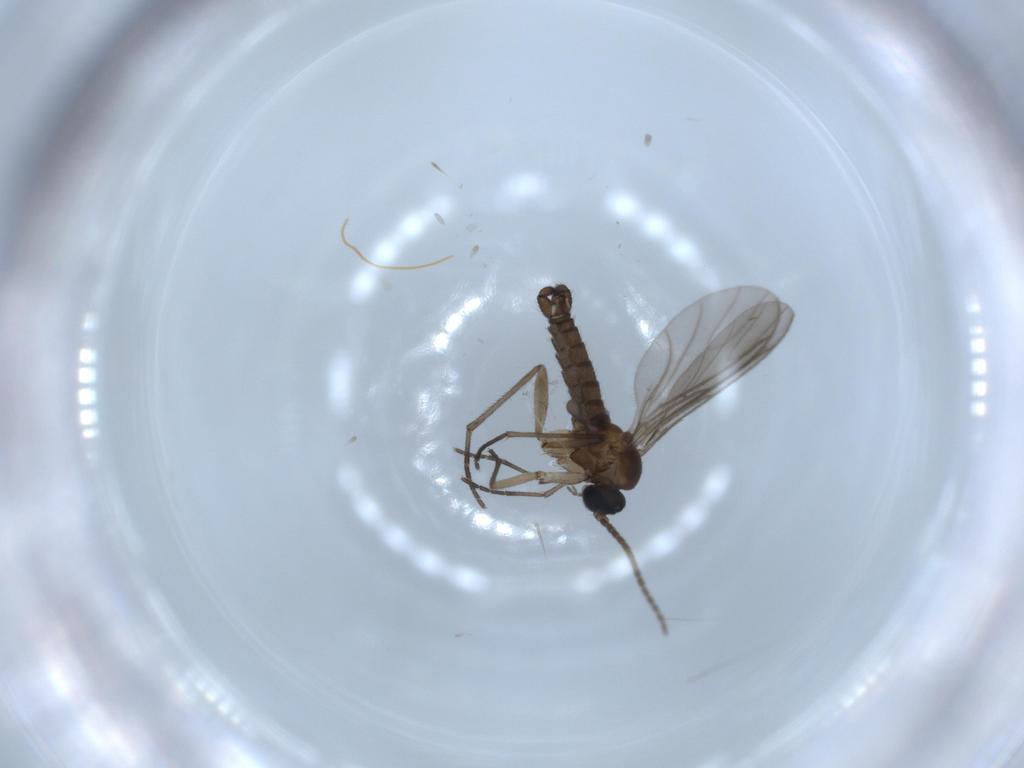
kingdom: Animalia
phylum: Arthropoda
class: Insecta
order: Diptera
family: Sciaridae
